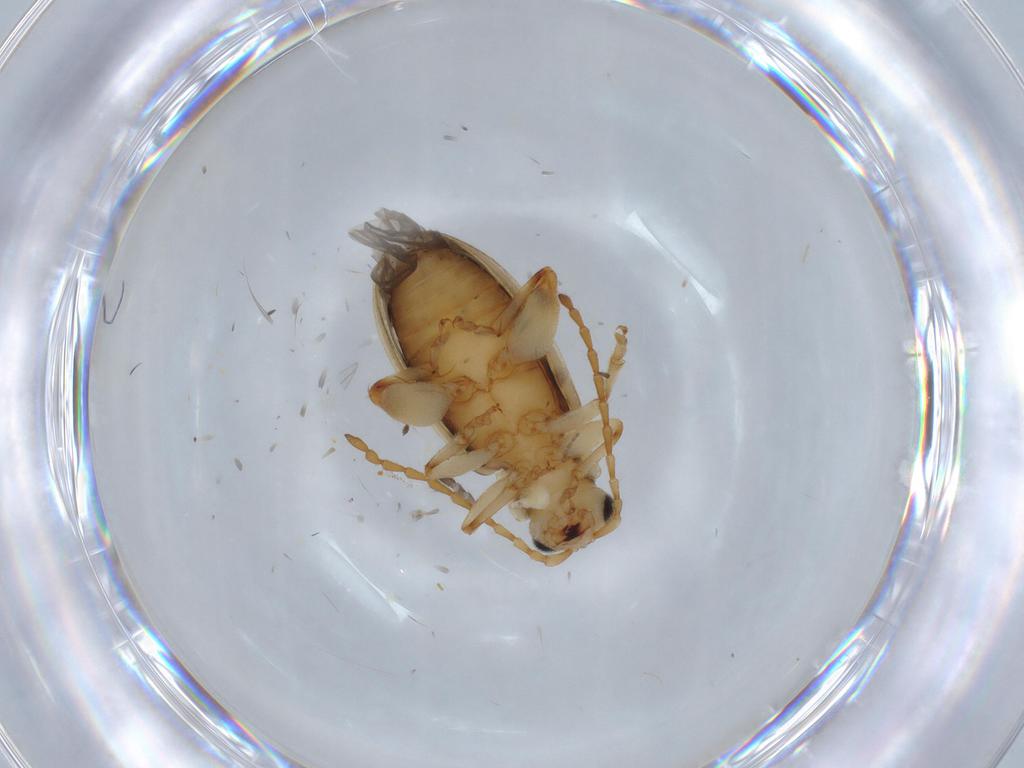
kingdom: Animalia
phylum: Arthropoda
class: Insecta
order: Coleoptera
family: Chrysomelidae
